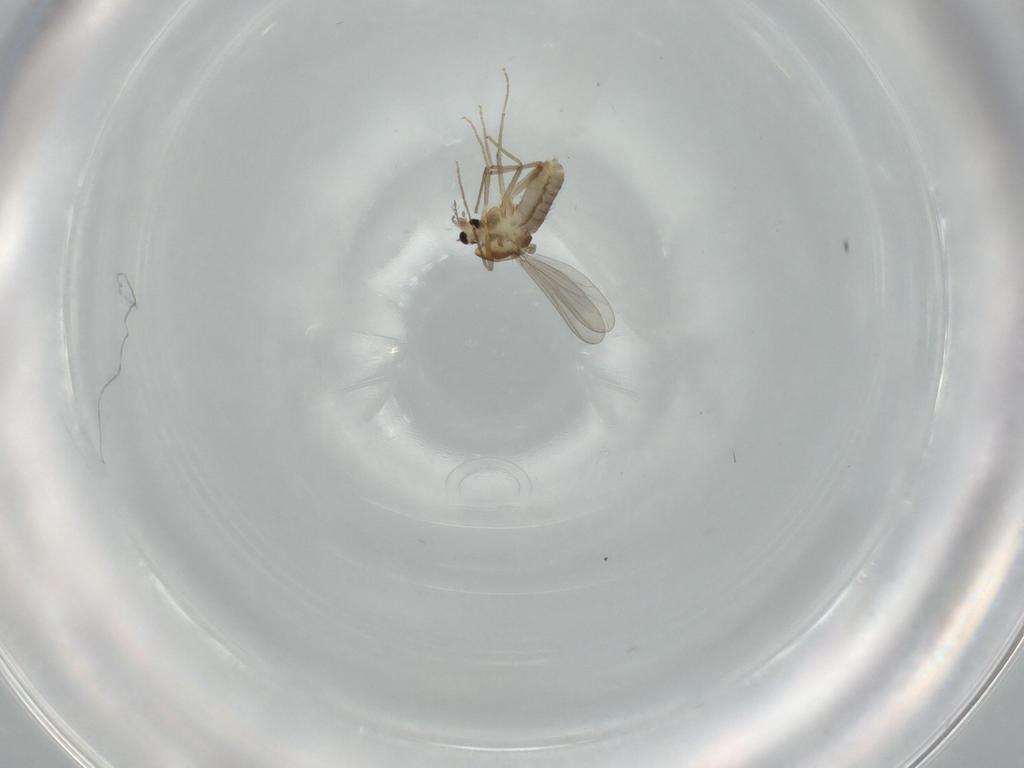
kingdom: Animalia
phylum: Arthropoda
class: Insecta
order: Diptera
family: Chironomidae
